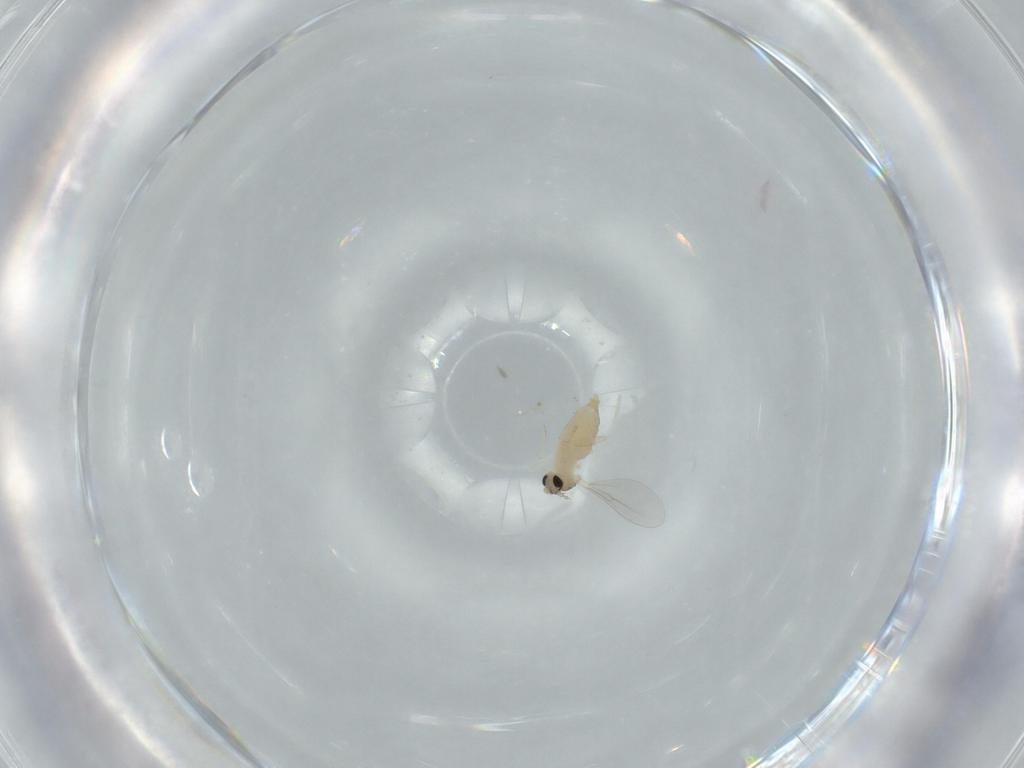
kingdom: Animalia
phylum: Arthropoda
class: Insecta
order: Diptera
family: Cecidomyiidae
